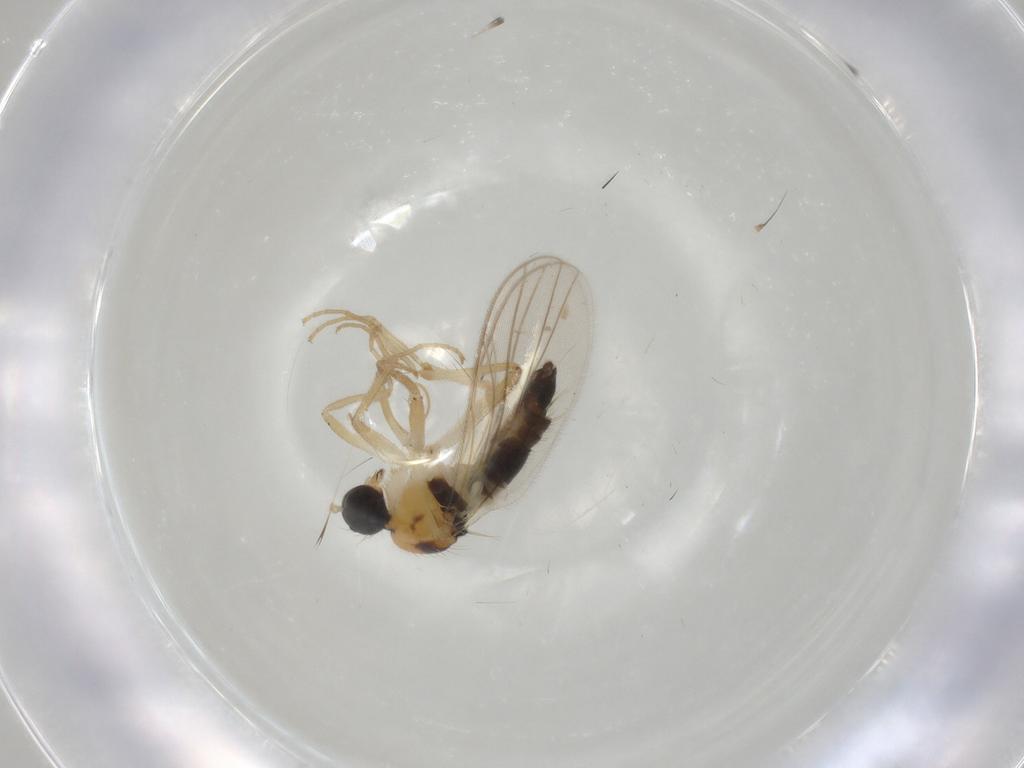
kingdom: Animalia
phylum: Arthropoda
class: Insecta
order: Diptera
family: Hybotidae
